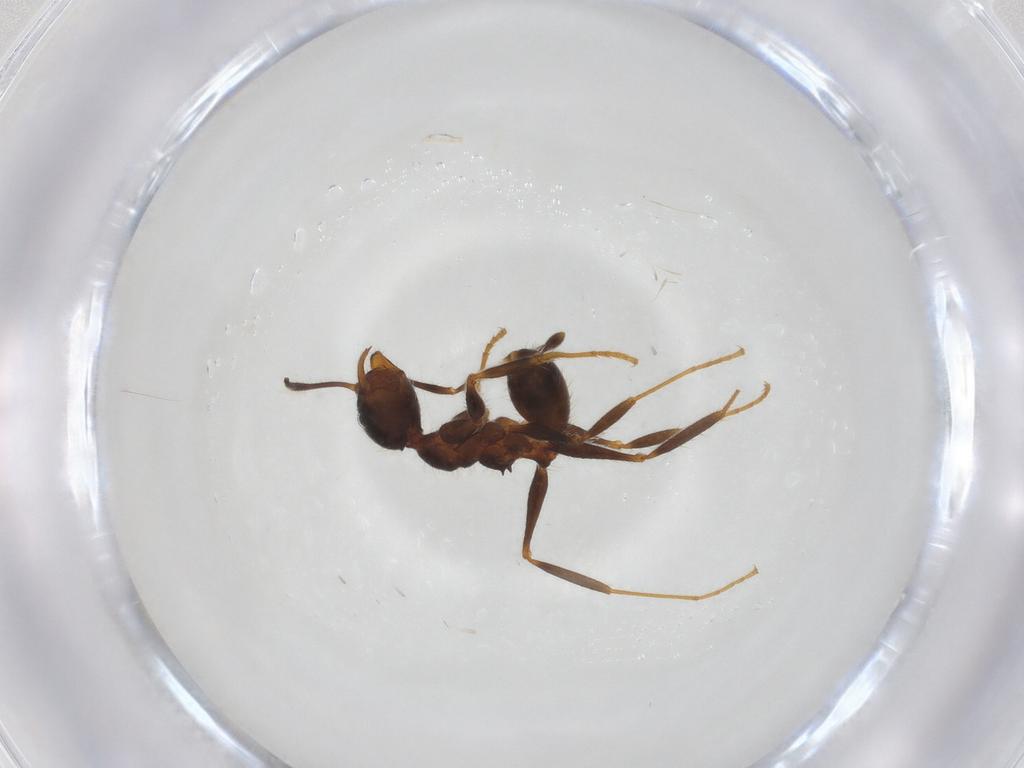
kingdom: Animalia
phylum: Arthropoda
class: Insecta
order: Hymenoptera
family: Formicidae
